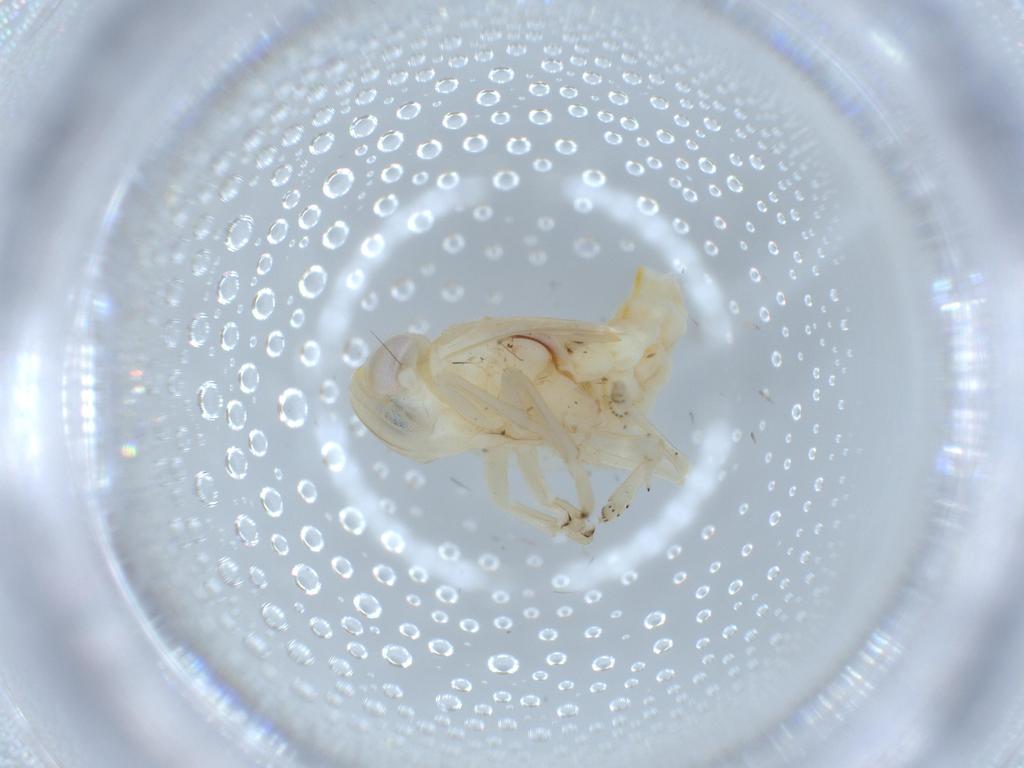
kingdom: Animalia
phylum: Arthropoda
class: Insecta
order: Hemiptera
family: Nogodinidae
